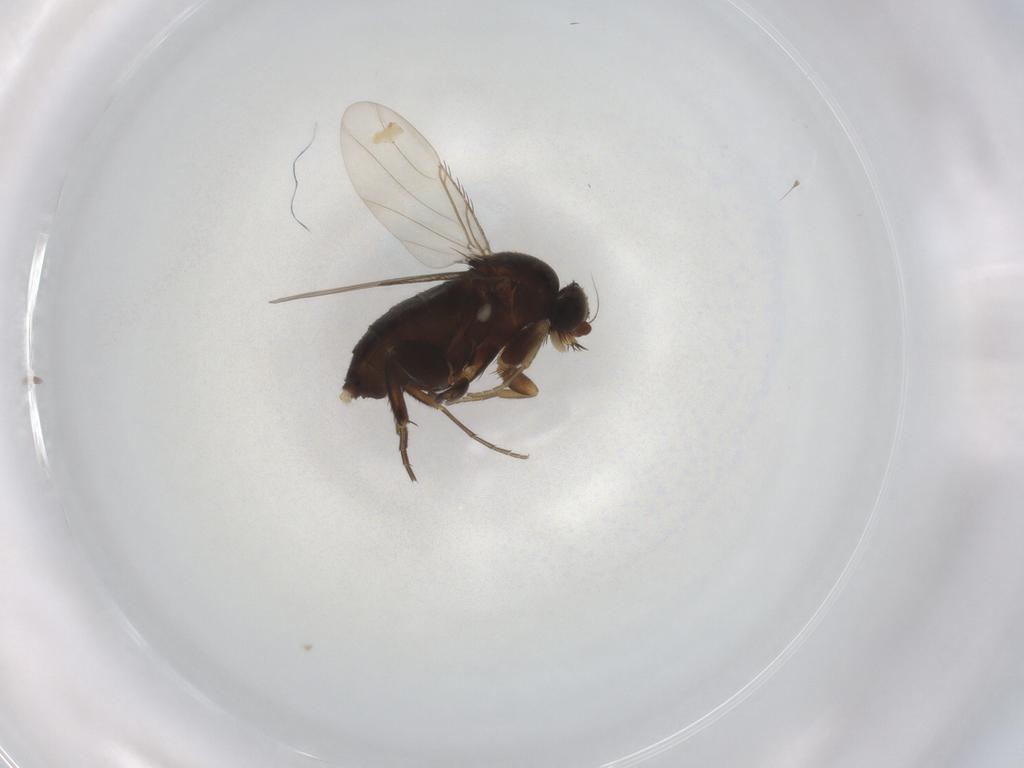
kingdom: Animalia
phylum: Arthropoda
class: Insecta
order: Diptera
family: Phoridae
